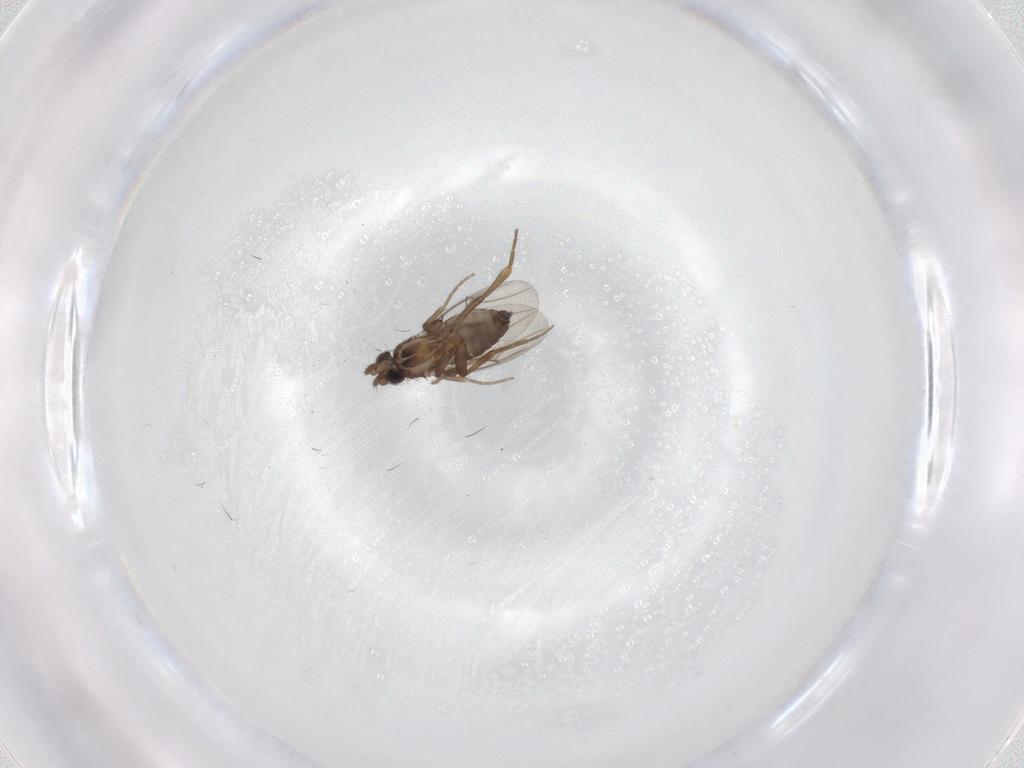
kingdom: Animalia
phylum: Arthropoda
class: Insecta
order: Diptera
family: Phoridae
